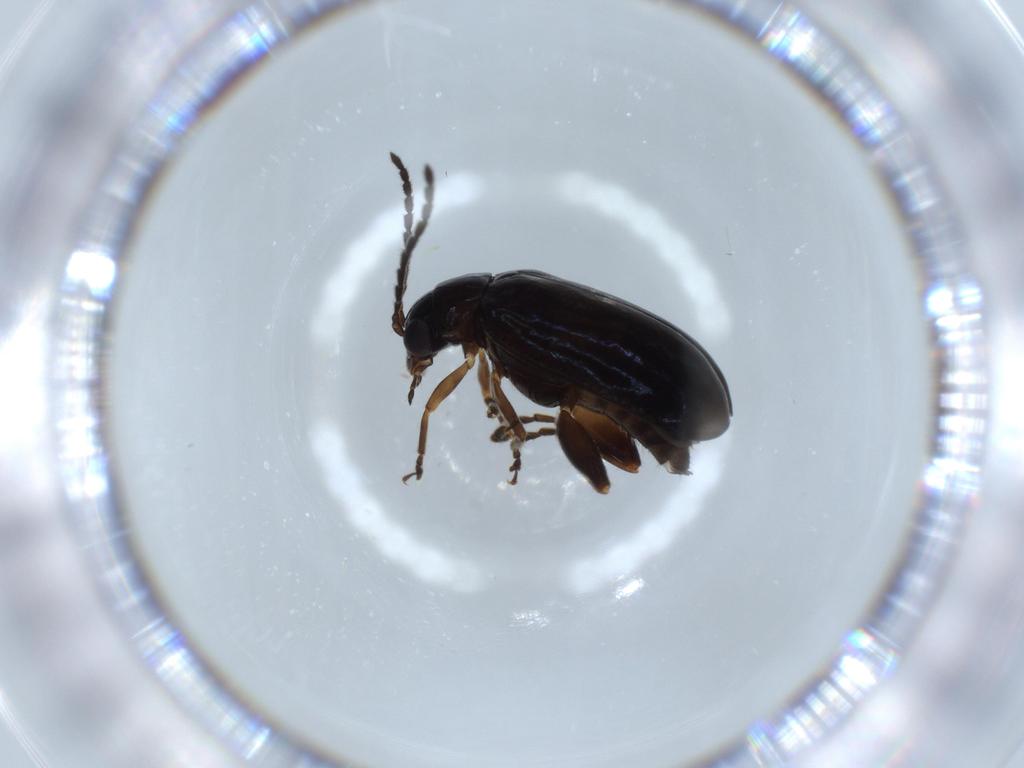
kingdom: Animalia
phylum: Arthropoda
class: Insecta
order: Coleoptera
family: Chrysomelidae
